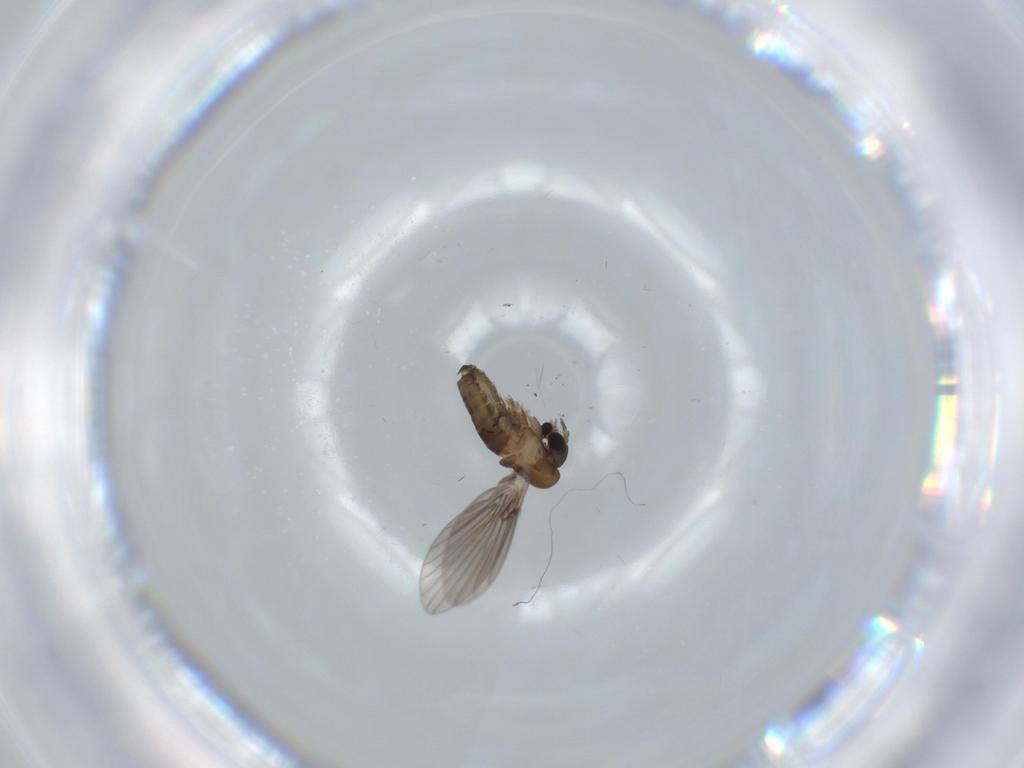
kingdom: Animalia
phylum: Arthropoda
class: Insecta
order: Diptera
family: Psychodidae
